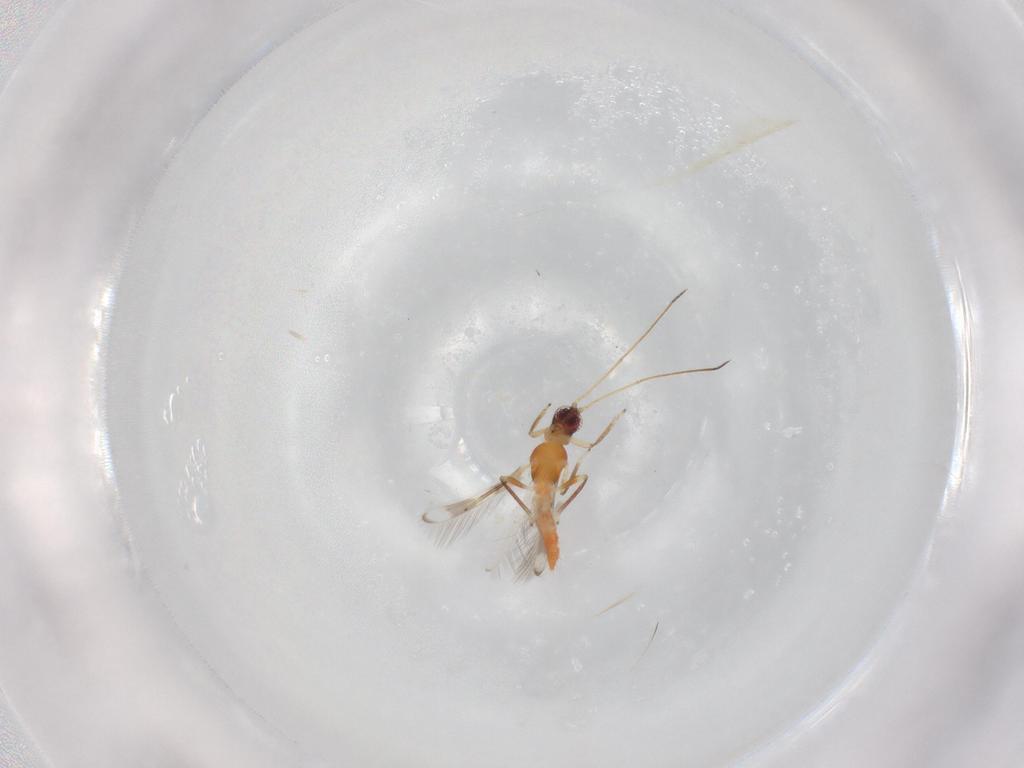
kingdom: Animalia
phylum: Arthropoda
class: Insecta
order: Thysanoptera
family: Aeolothripidae
